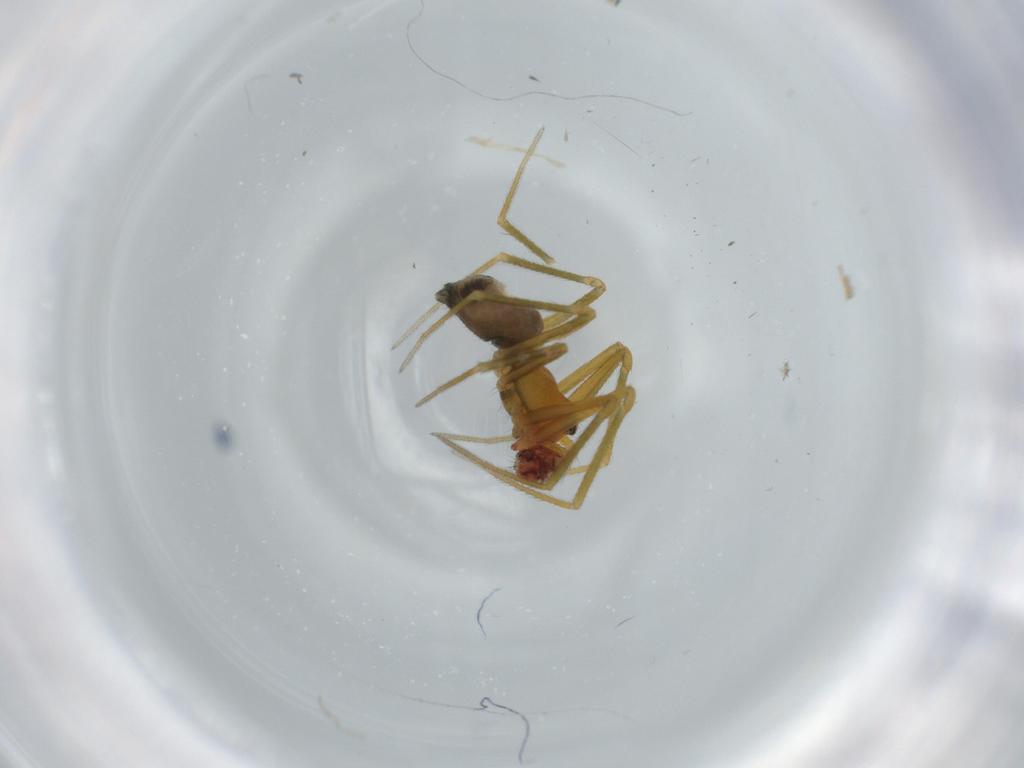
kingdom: Animalia
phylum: Arthropoda
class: Arachnida
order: Araneae
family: Linyphiidae
